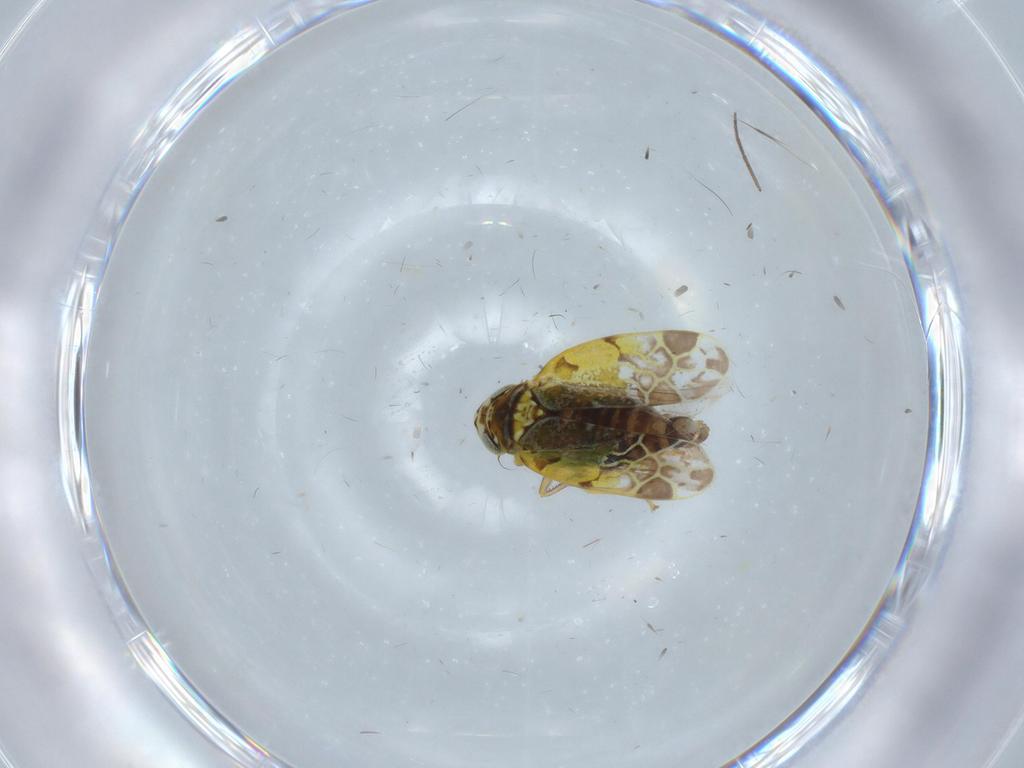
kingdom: Animalia
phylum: Arthropoda
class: Insecta
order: Hemiptera
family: Cicadellidae
